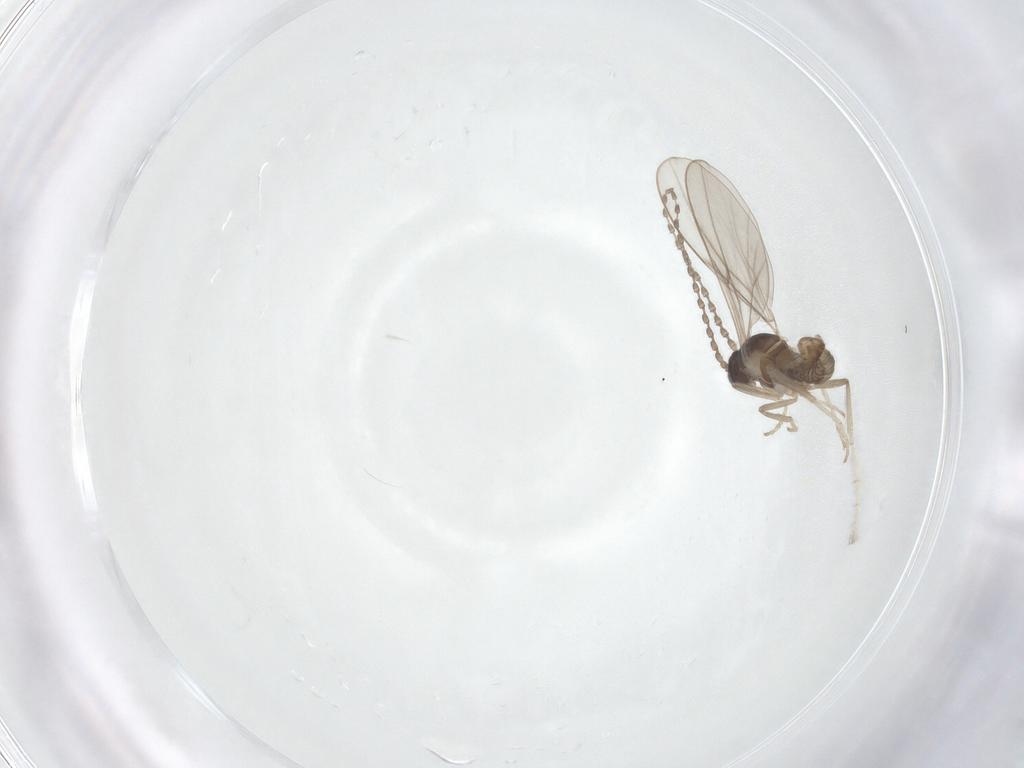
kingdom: Animalia
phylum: Arthropoda
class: Insecta
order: Diptera
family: Cecidomyiidae
